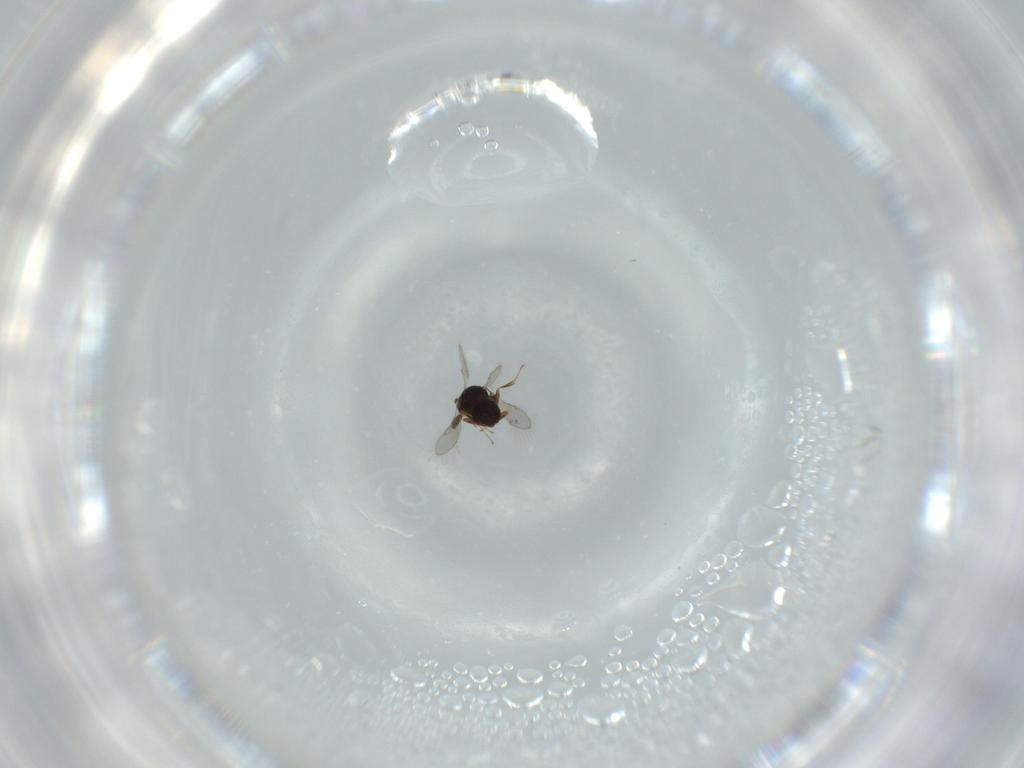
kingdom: Animalia
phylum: Arthropoda
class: Insecta
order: Hymenoptera
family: Scelionidae
